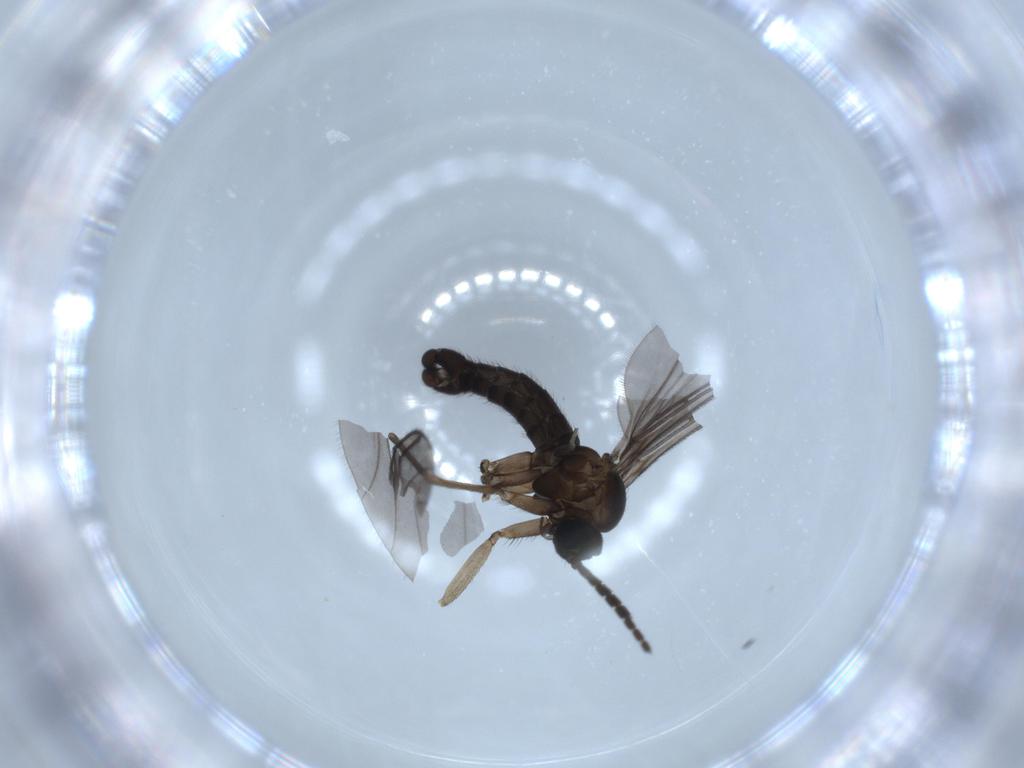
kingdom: Animalia
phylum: Arthropoda
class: Insecta
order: Diptera
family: Sciaridae
